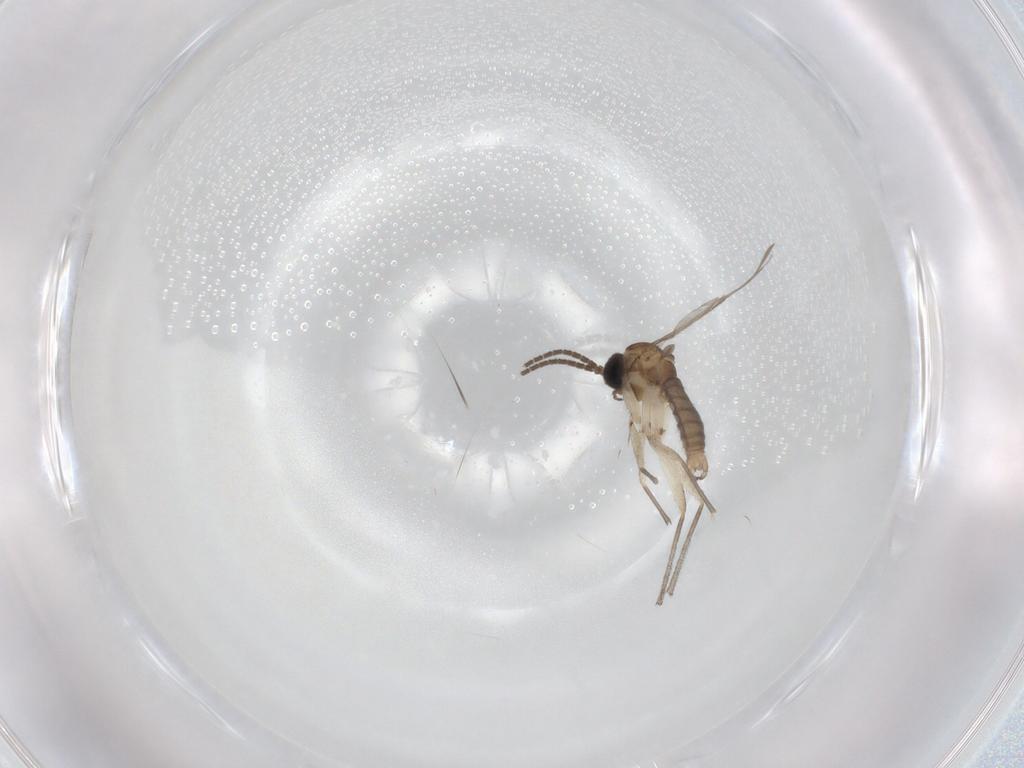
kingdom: Animalia
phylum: Arthropoda
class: Insecta
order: Diptera
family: Sciaridae
